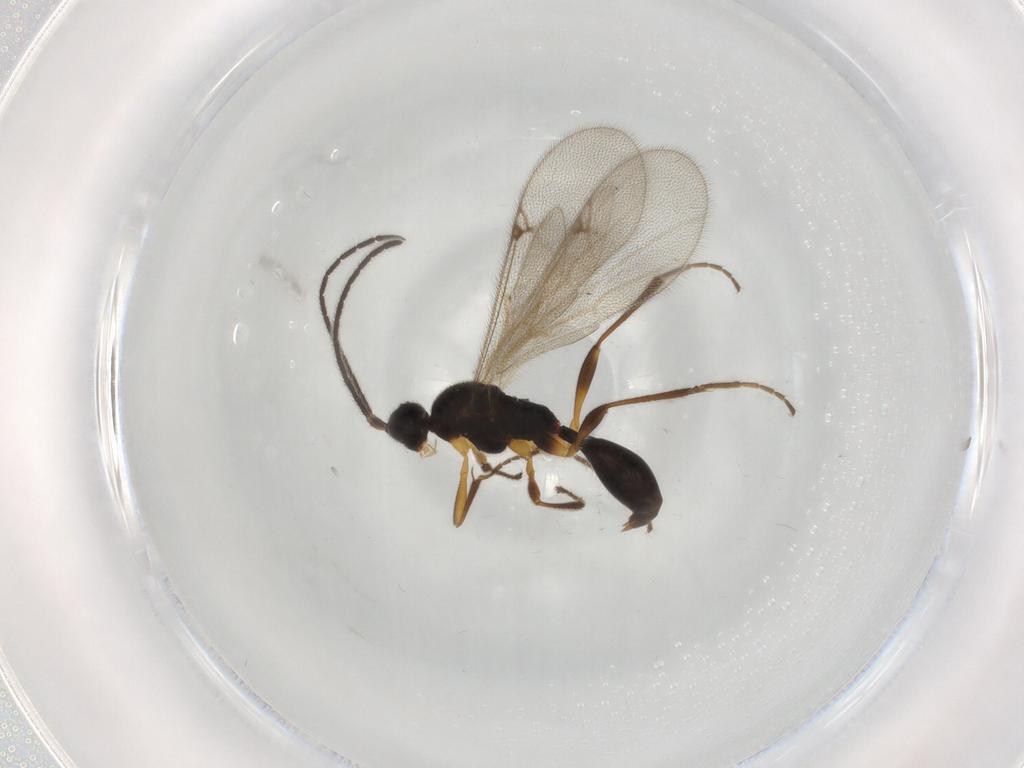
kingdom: Animalia
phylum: Arthropoda
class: Insecta
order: Hymenoptera
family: Proctotrupidae
